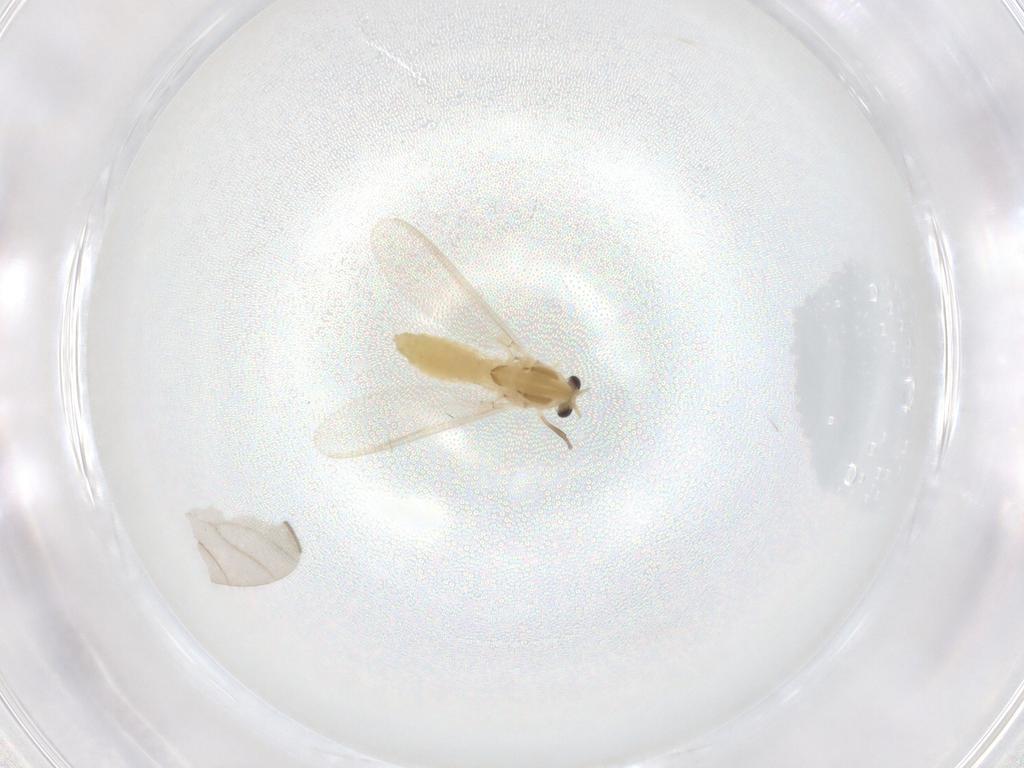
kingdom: Animalia
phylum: Arthropoda
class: Insecta
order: Diptera
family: Chironomidae
